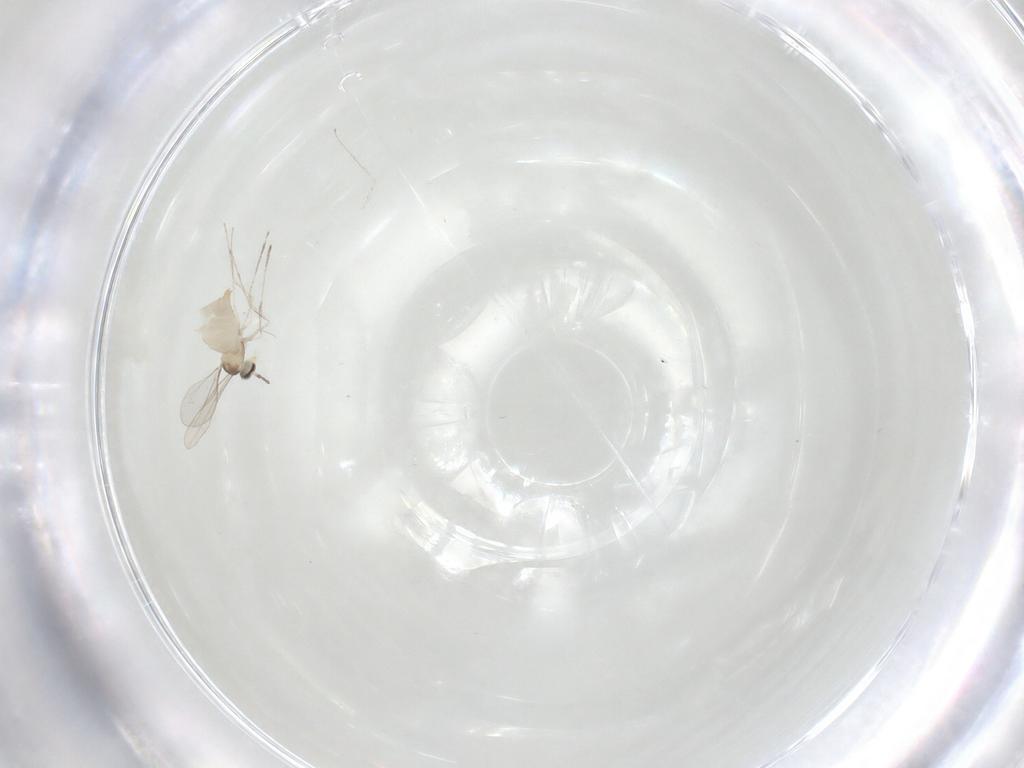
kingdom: Animalia
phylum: Arthropoda
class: Insecta
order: Diptera
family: Cecidomyiidae
